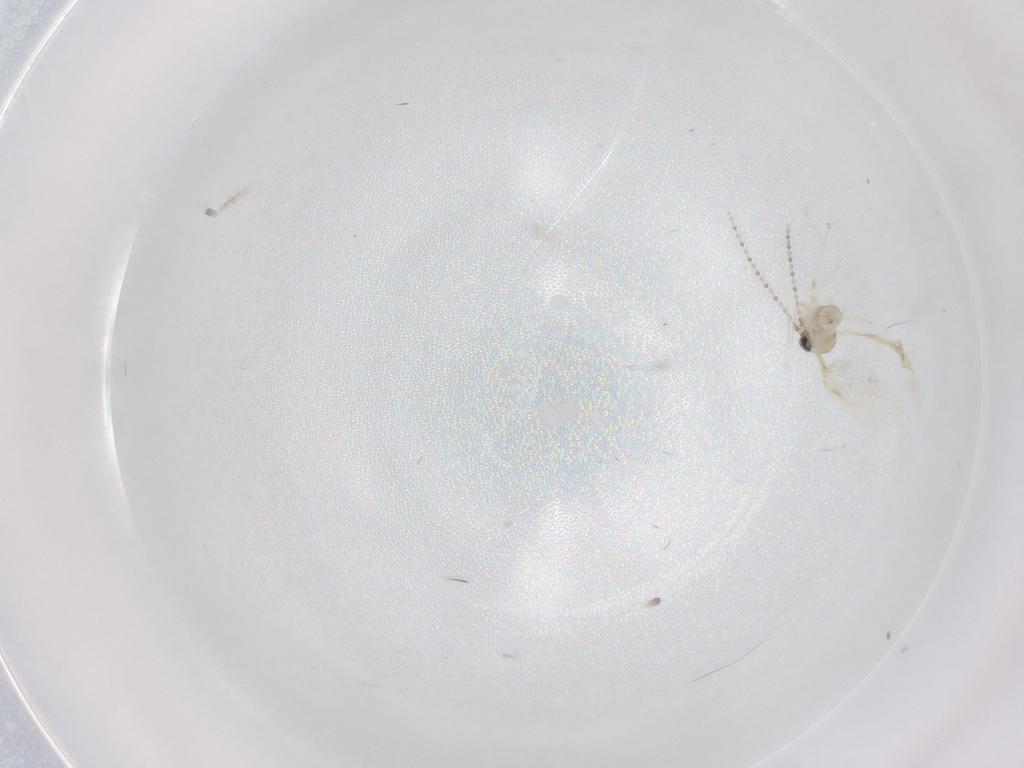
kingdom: Animalia
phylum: Arthropoda
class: Insecta
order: Diptera
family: Cecidomyiidae
